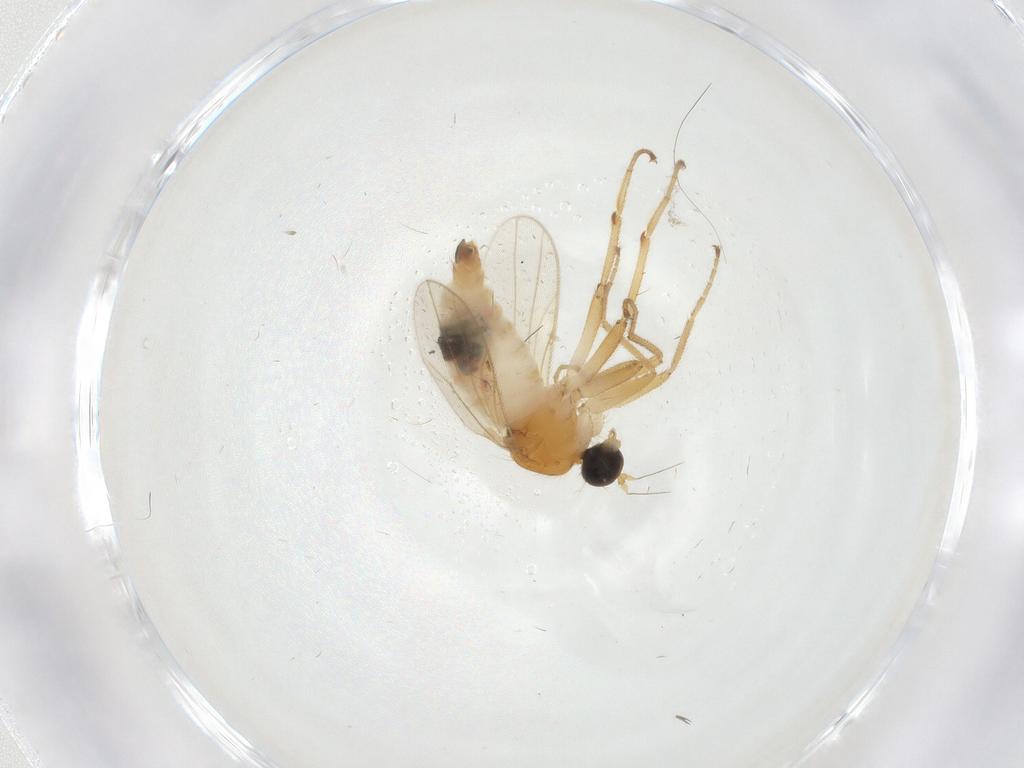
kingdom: Animalia
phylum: Arthropoda
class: Insecta
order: Diptera
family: Hybotidae
